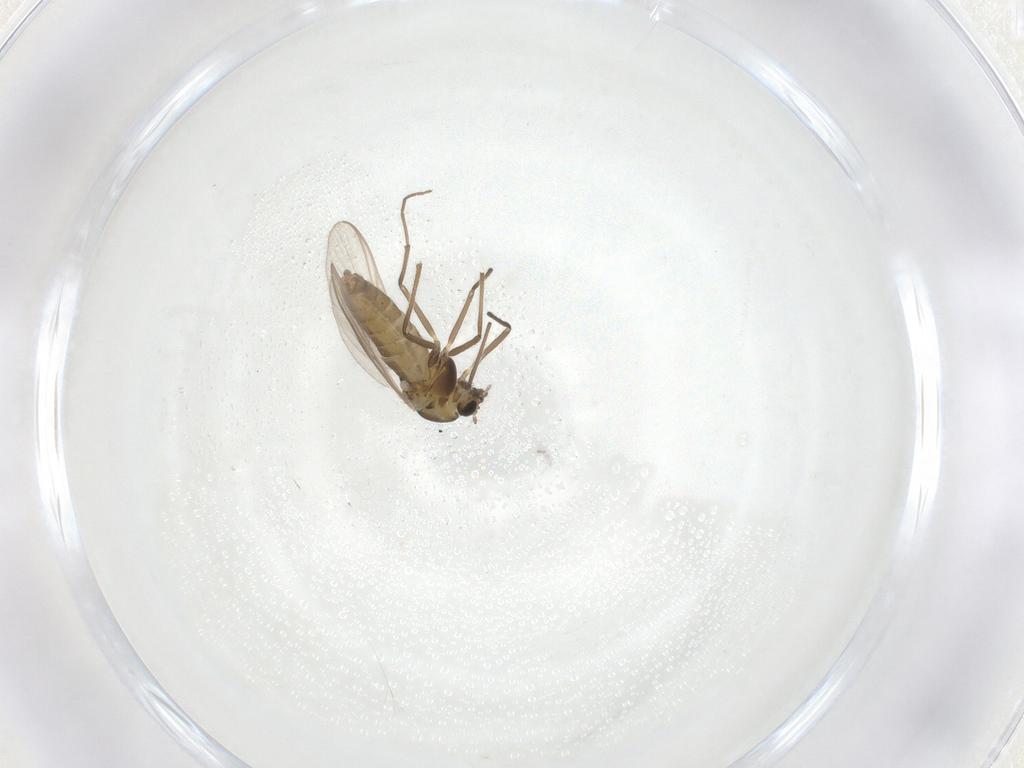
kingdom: Animalia
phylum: Arthropoda
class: Insecta
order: Diptera
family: Chironomidae
